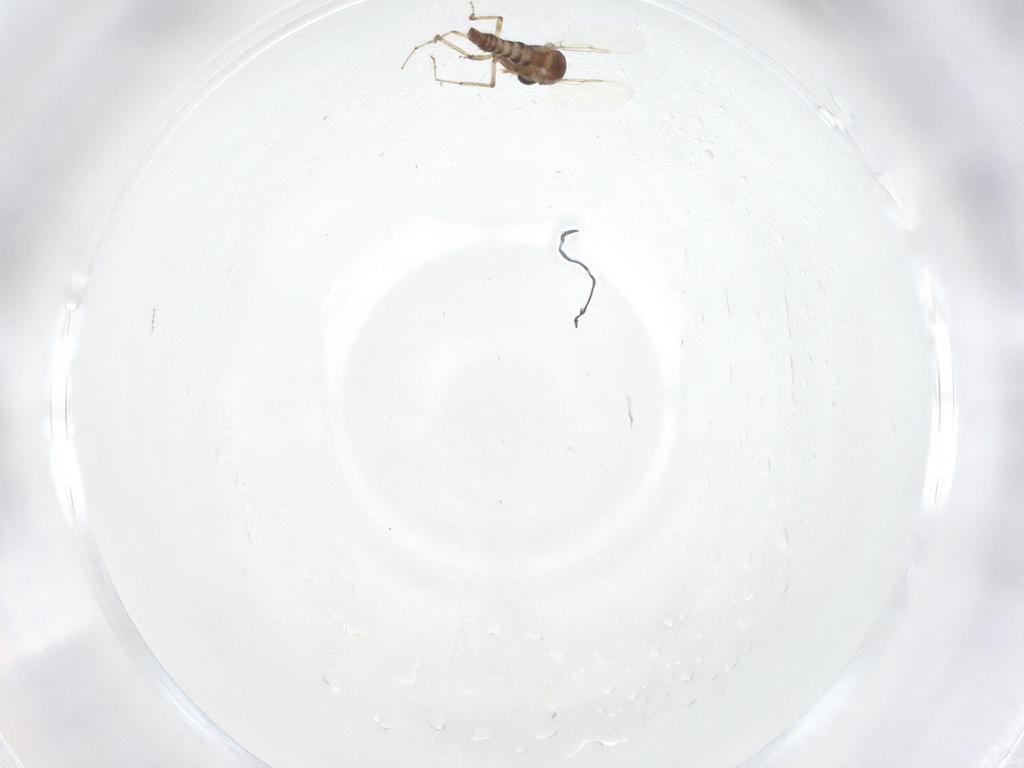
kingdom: Animalia
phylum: Arthropoda
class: Insecta
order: Diptera
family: Ceratopogonidae
